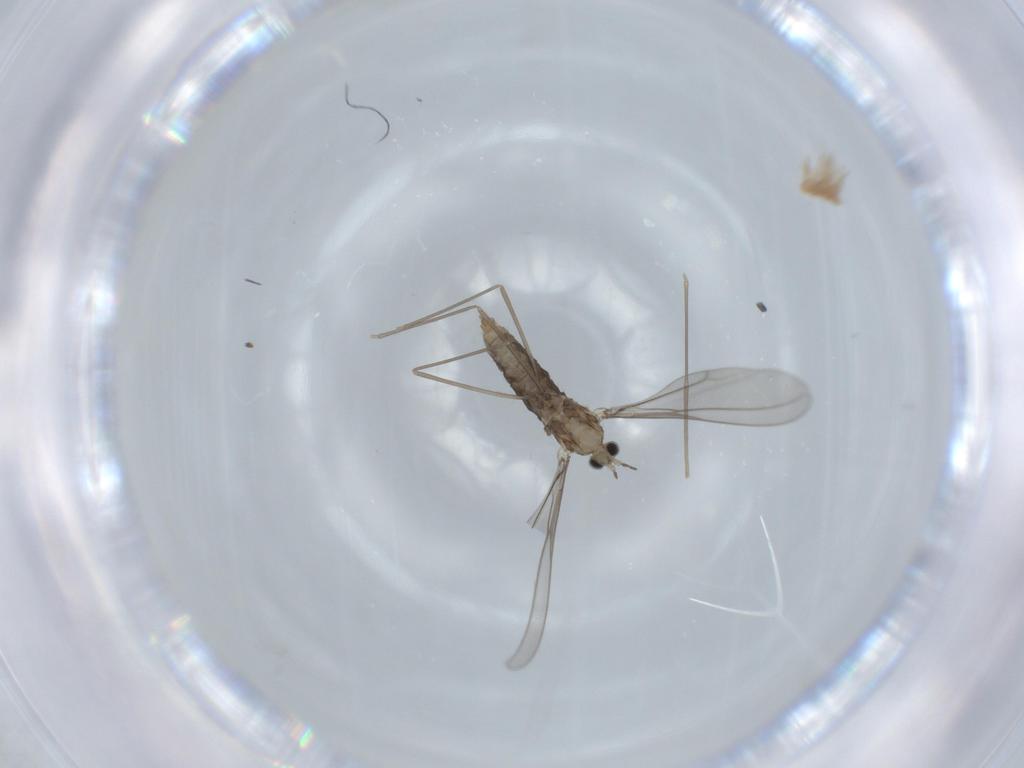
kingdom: Animalia
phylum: Arthropoda
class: Insecta
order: Diptera
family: Cecidomyiidae
